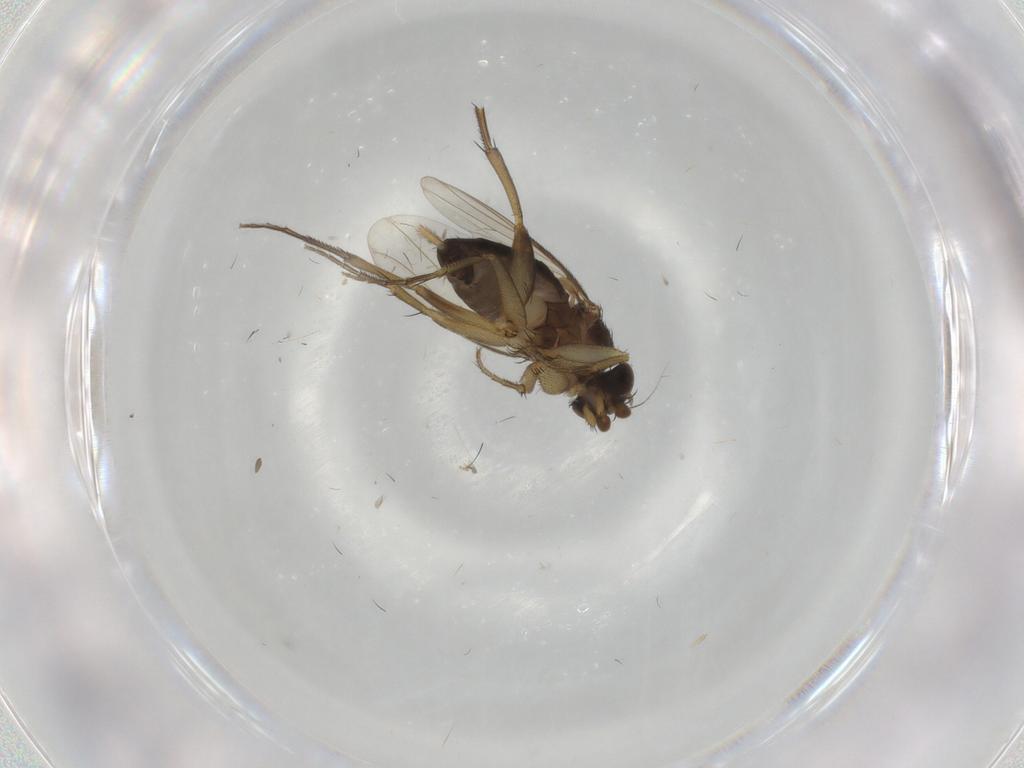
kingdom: Animalia
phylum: Arthropoda
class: Insecta
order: Diptera
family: Phoridae
